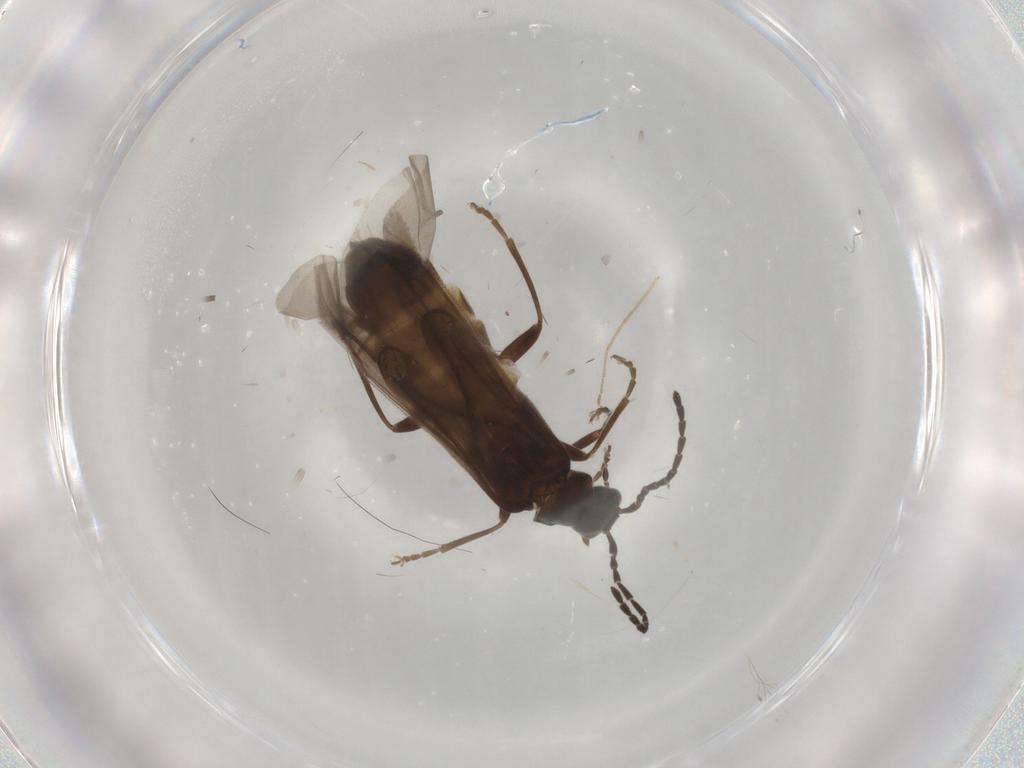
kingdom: Animalia
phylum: Arthropoda
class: Insecta
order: Coleoptera
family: Cantharidae
